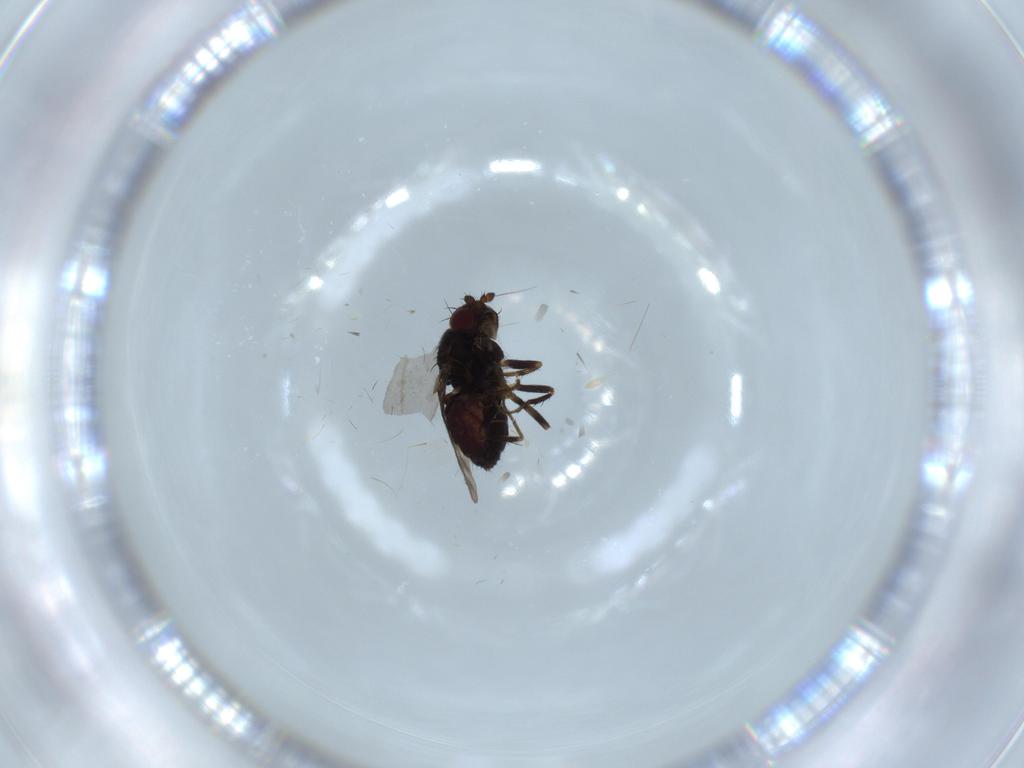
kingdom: Animalia
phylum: Arthropoda
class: Insecta
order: Diptera
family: Sphaeroceridae
